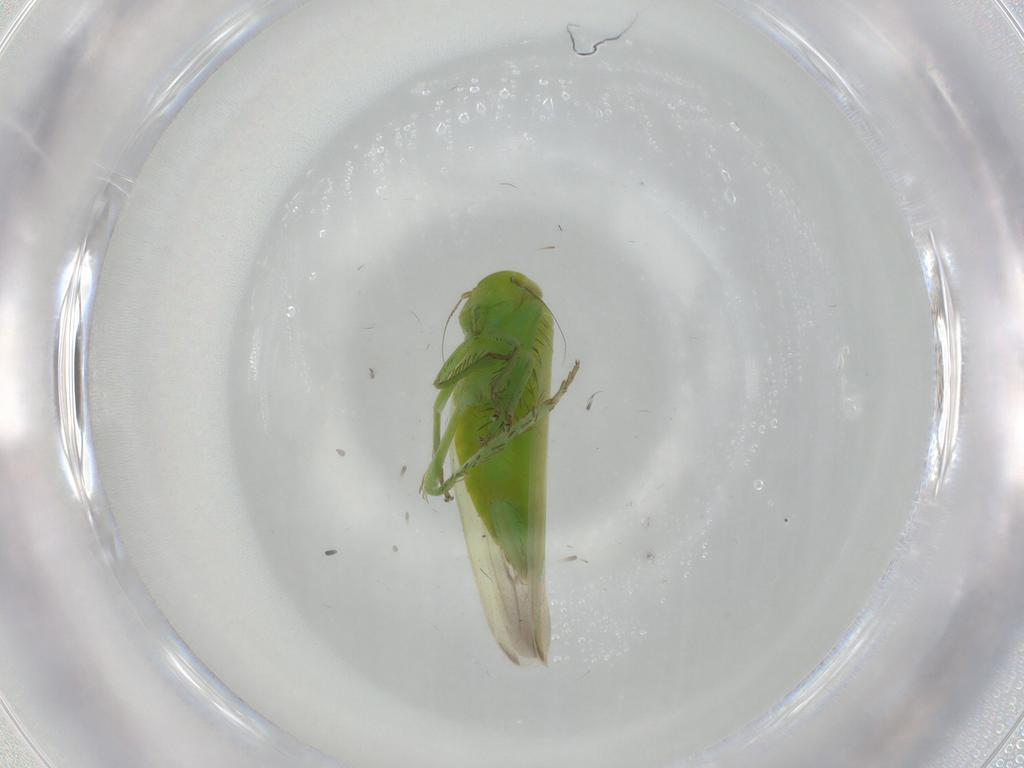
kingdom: Animalia
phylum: Arthropoda
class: Insecta
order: Hemiptera
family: Cicadellidae
